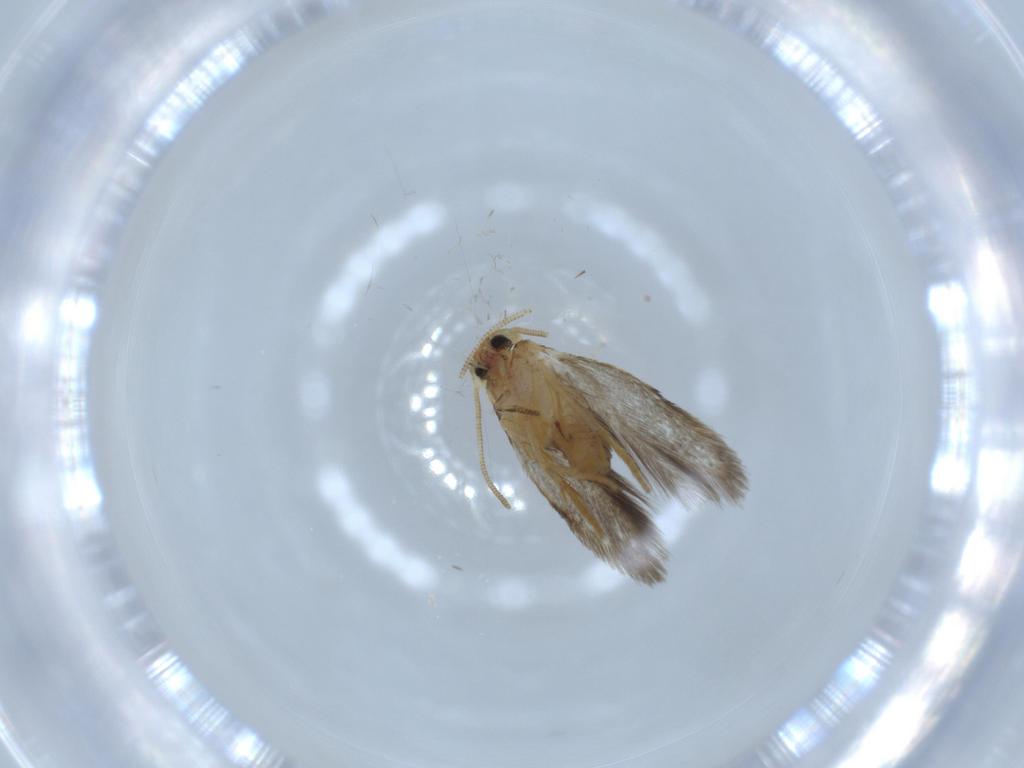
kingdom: Animalia
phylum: Arthropoda
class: Insecta
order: Lepidoptera
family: Nepticulidae
